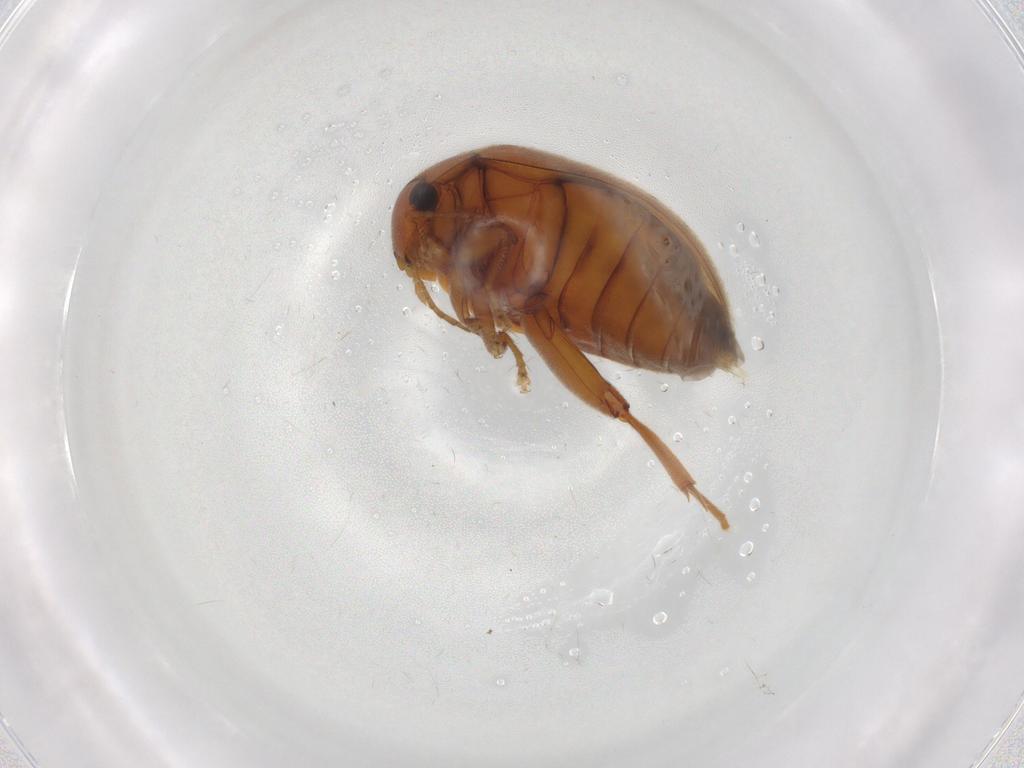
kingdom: Animalia
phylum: Arthropoda
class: Insecta
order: Coleoptera
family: Scirtidae
